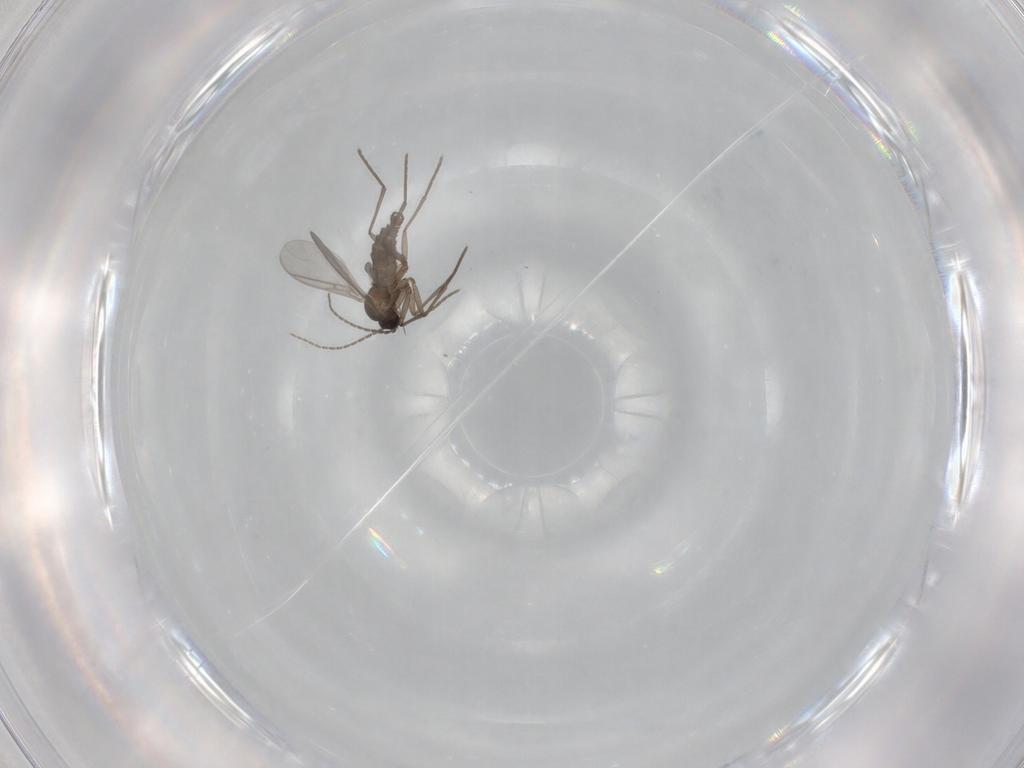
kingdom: Animalia
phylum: Arthropoda
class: Insecta
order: Diptera
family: Sciaridae
